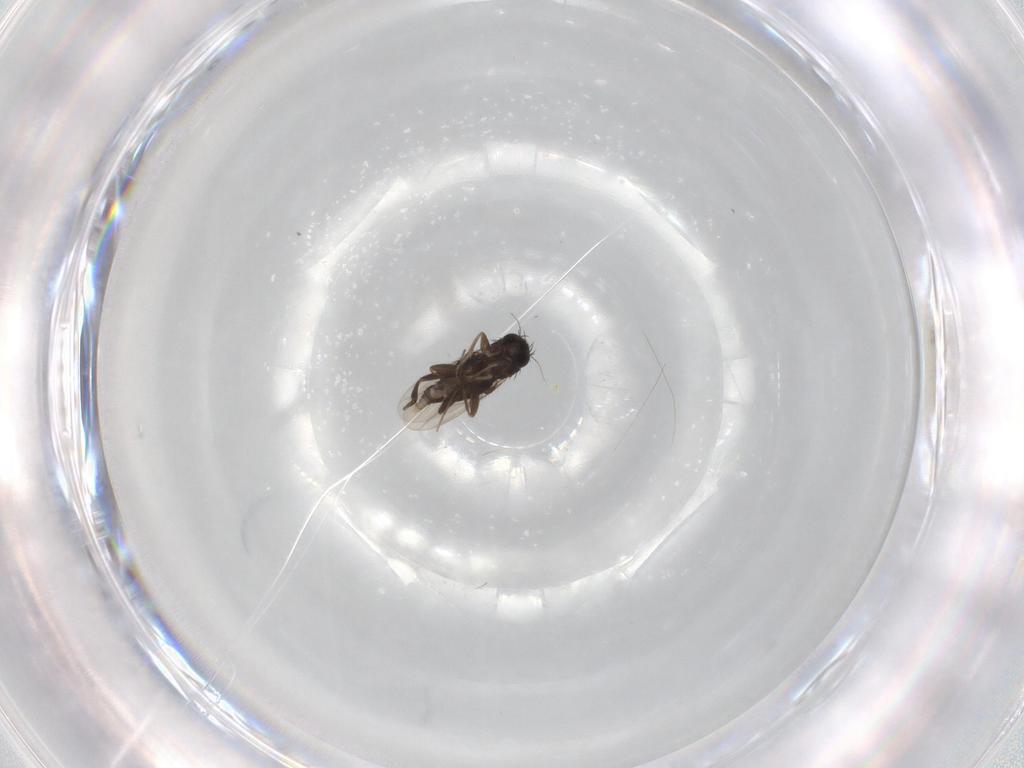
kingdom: Animalia
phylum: Arthropoda
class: Insecta
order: Diptera
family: Phoridae
